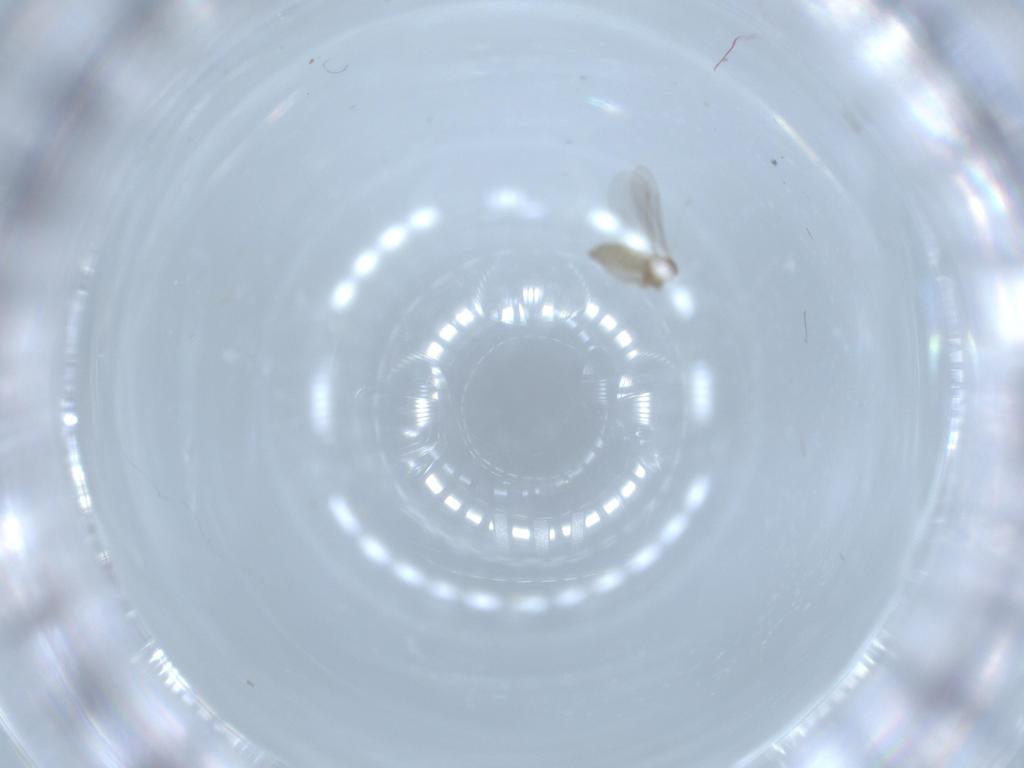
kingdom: Animalia
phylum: Arthropoda
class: Insecta
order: Diptera
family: Cecidomyiidae
